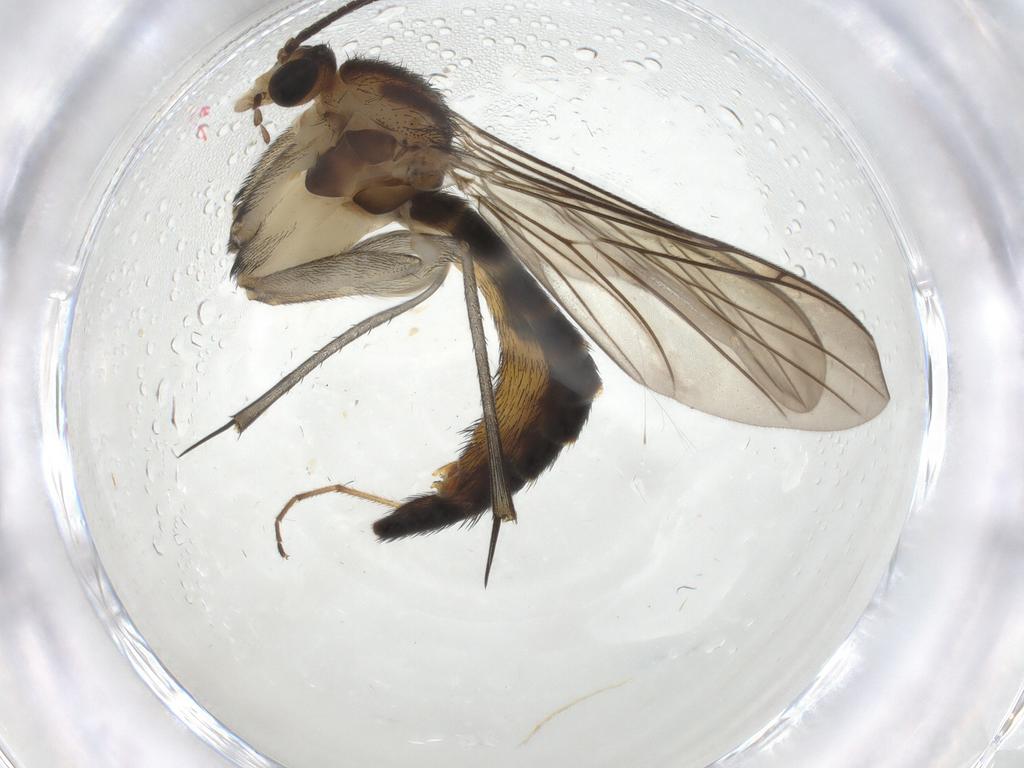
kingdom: Animalia
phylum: Arthropoda
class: Insecta
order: Diptera
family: Keroplatidae
